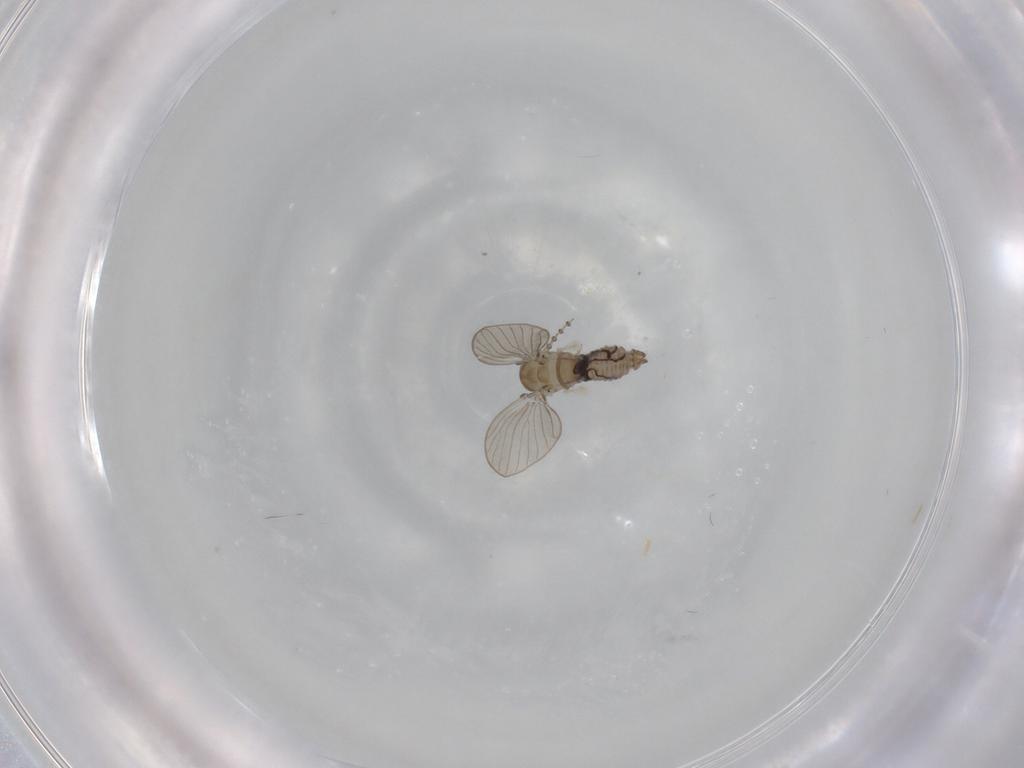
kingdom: Animalia
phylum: Arthropoda
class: Insecta
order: Diptera
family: Psychodidae
